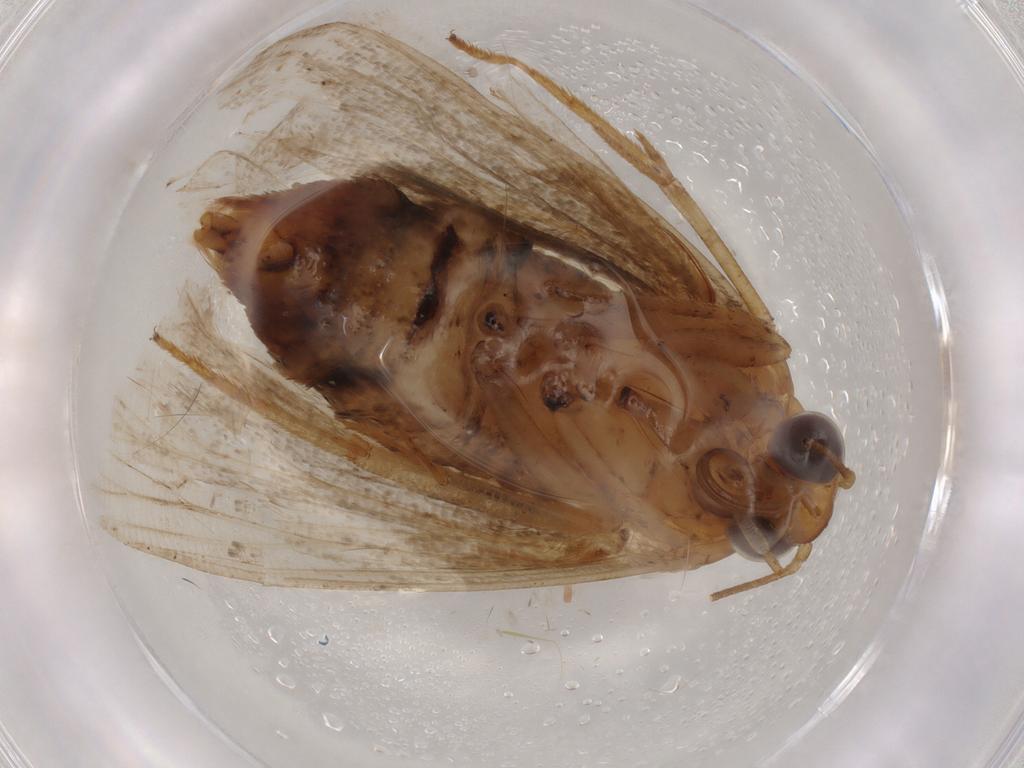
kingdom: Animalia
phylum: Arthropoda
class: Insecta
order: Lepidoptera
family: Erebidae
